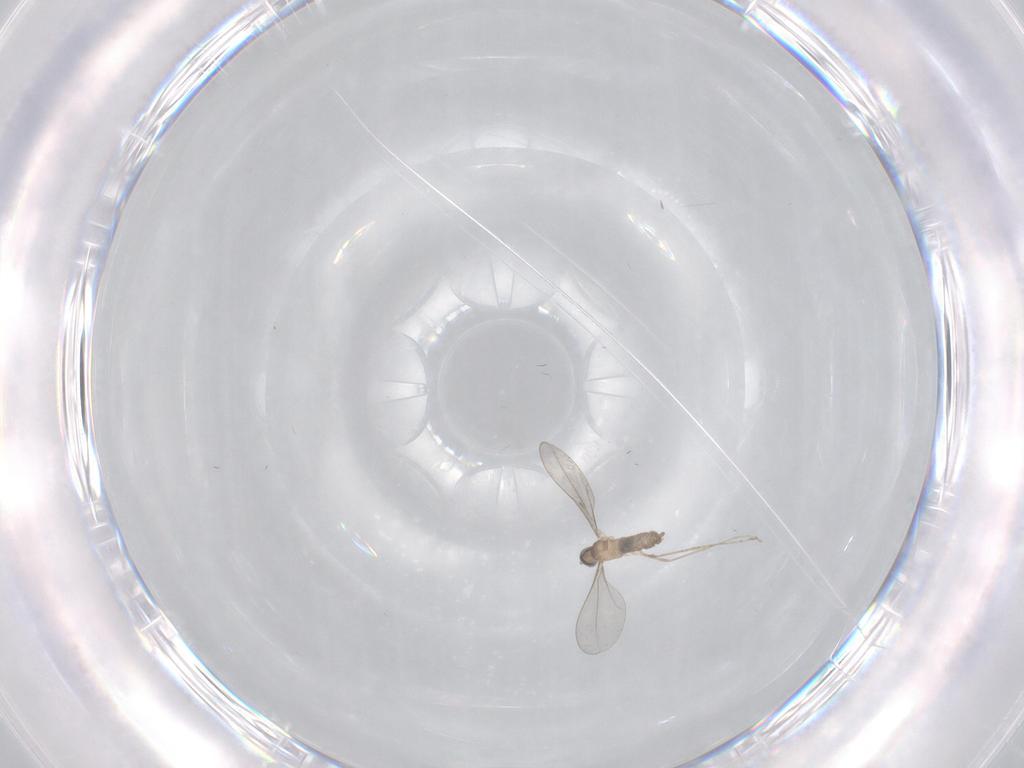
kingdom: Animalia
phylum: Arthropoda
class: Insecta
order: Diptera
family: Cecidomyiidae
